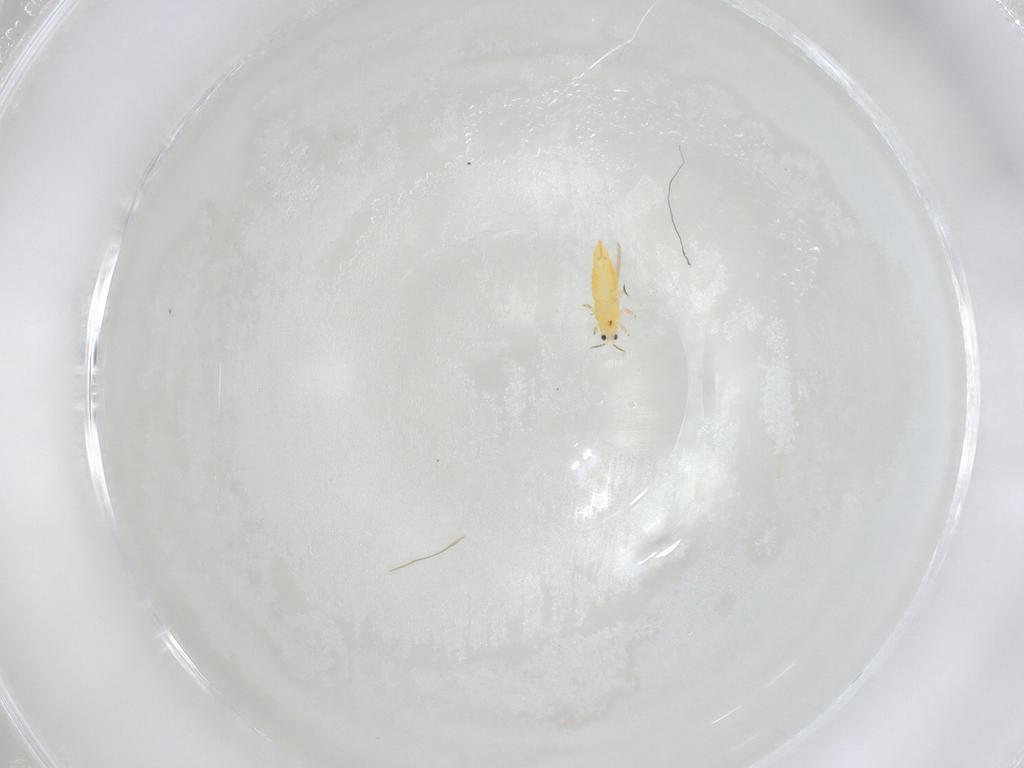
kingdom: Animalia
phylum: Arthropoda
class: Insecta
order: Thysanoptera
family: Thripidae
